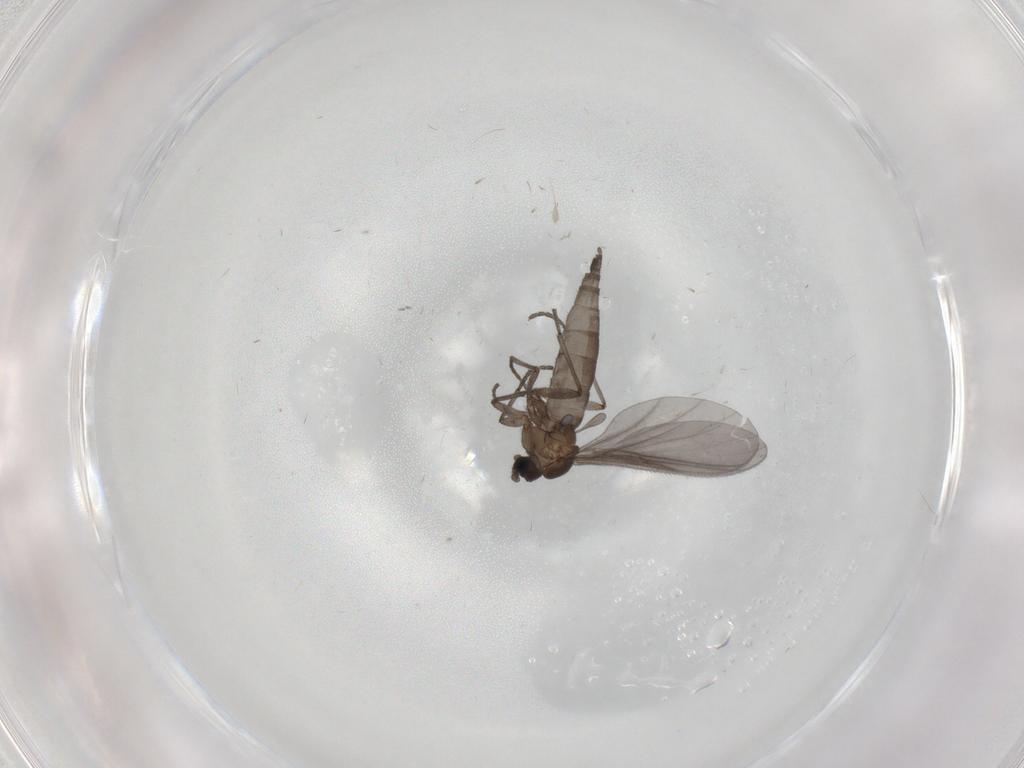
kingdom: Animalia
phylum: Arthropoda
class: Insecta
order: Diptera
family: Sciaridae
